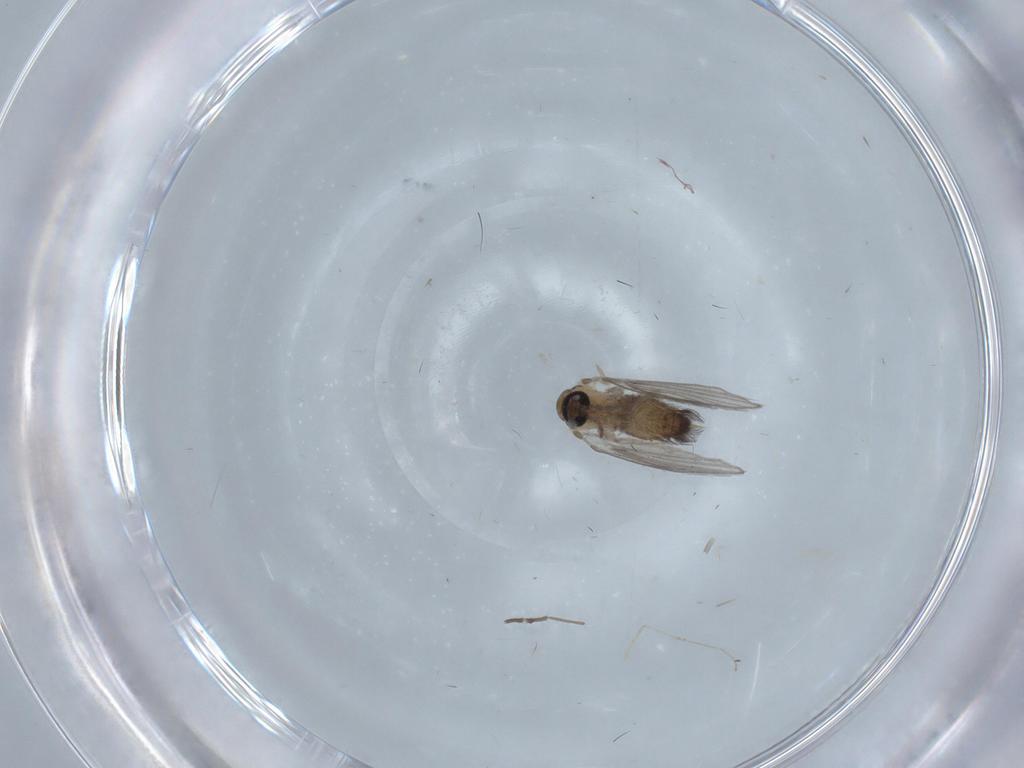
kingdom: Animalia
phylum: Arthropoda
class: Insecta
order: Diptera
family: Psychodidae
